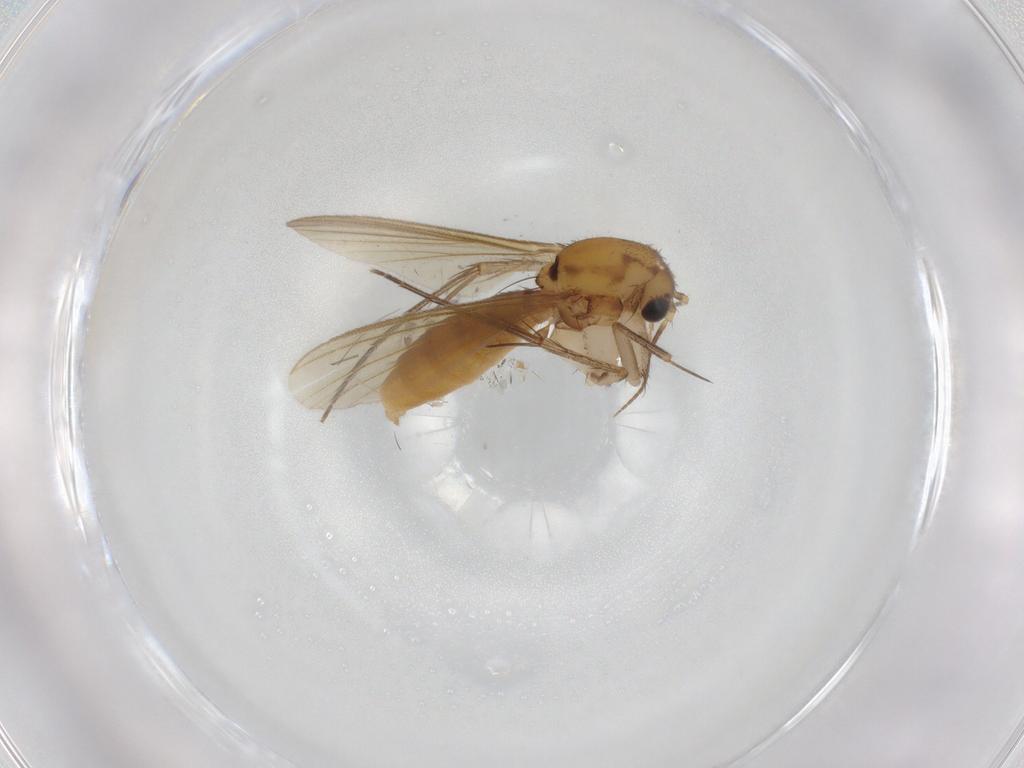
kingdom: Animalia
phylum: Arthropoda
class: Insecta
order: Diptera
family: Mycetophilidae
